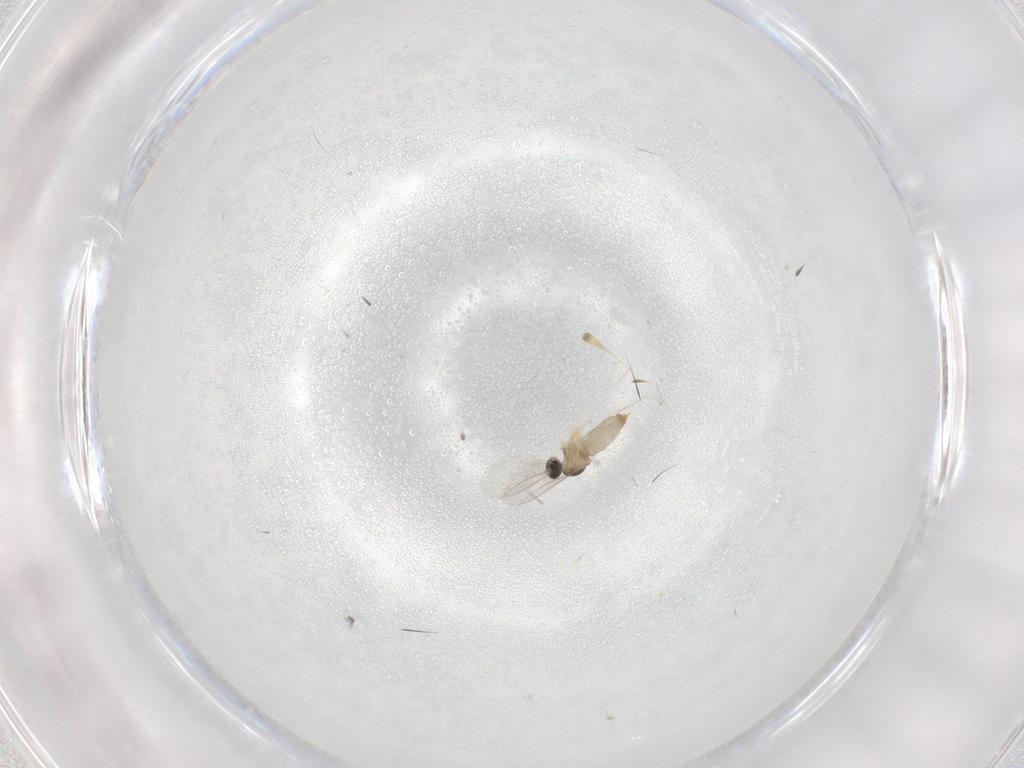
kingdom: Animalia
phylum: Arthropoda
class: Insecta
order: Diptera
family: Cecidomyiidae
